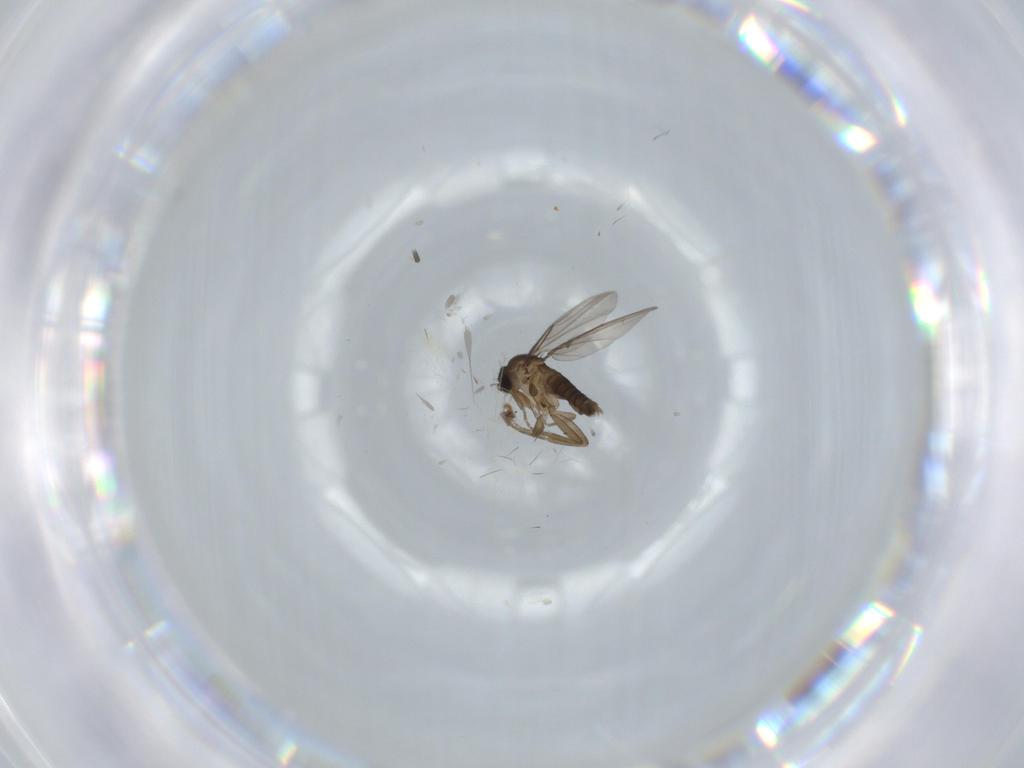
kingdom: Animalia
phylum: Arthropoda
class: Insecta
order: Diptera
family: Phoridae
